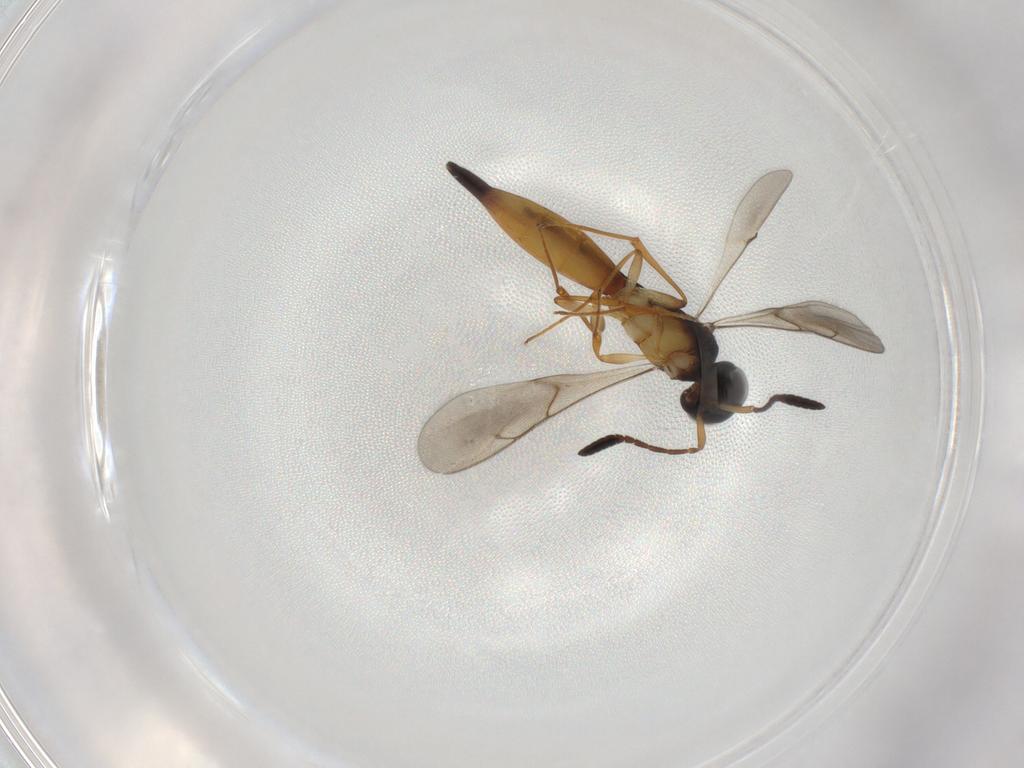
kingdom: Animalia
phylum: Arthropoda
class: Insecta
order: Hymenoptera
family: Scelionidae
